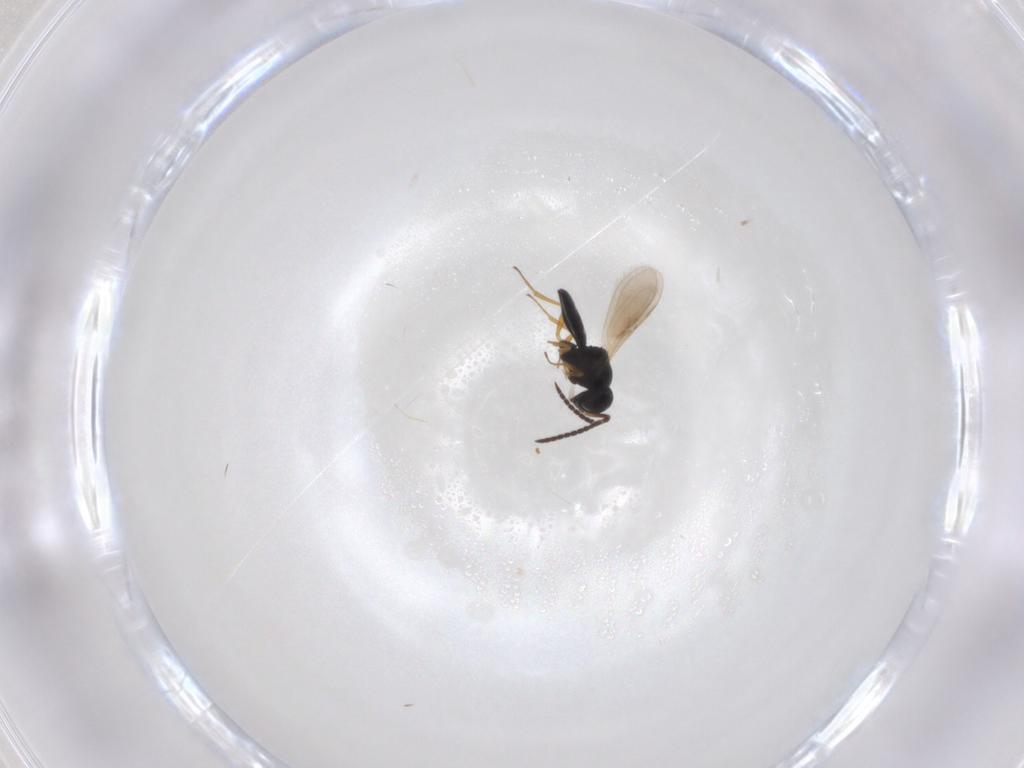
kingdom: Animalia
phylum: Arthropoda
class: Insecta
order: Hymenoptera
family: Scelionidae
